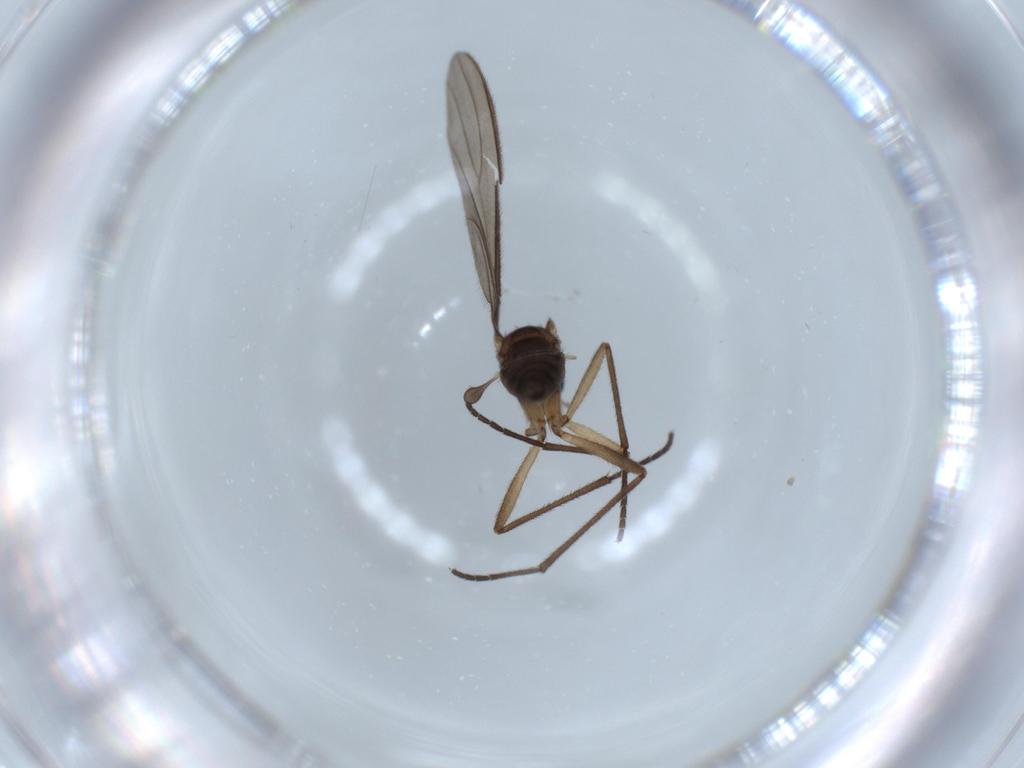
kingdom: Animalia
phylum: Arthropoda
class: Insecta
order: Diptera
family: Sciaridae
